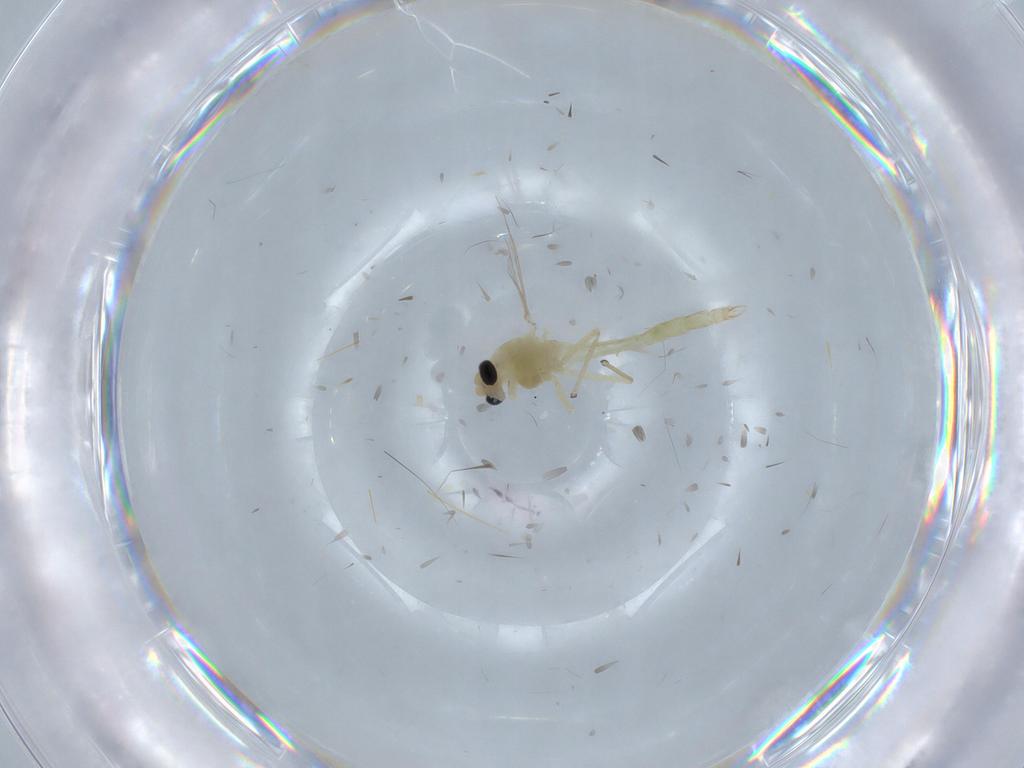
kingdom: Animalia
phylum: Arthropoda
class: Insecta
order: Diptera
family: Chironomidae
